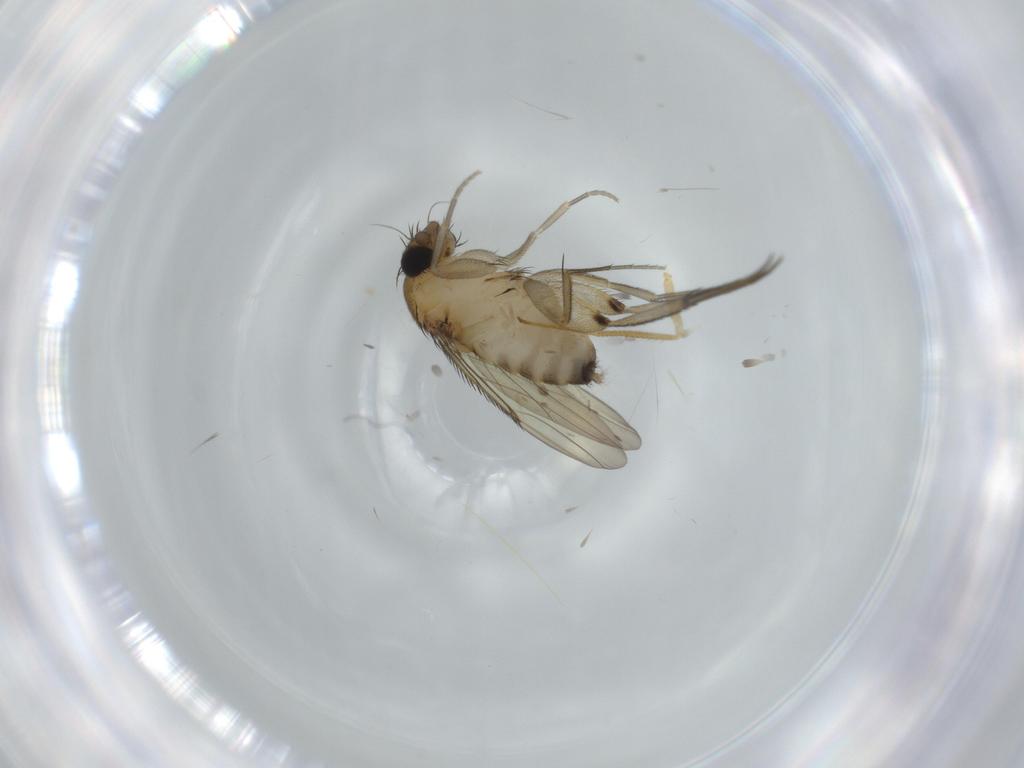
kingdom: Animalia
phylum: Arthropoda
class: Insecta
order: Diptera
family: Phoridae
